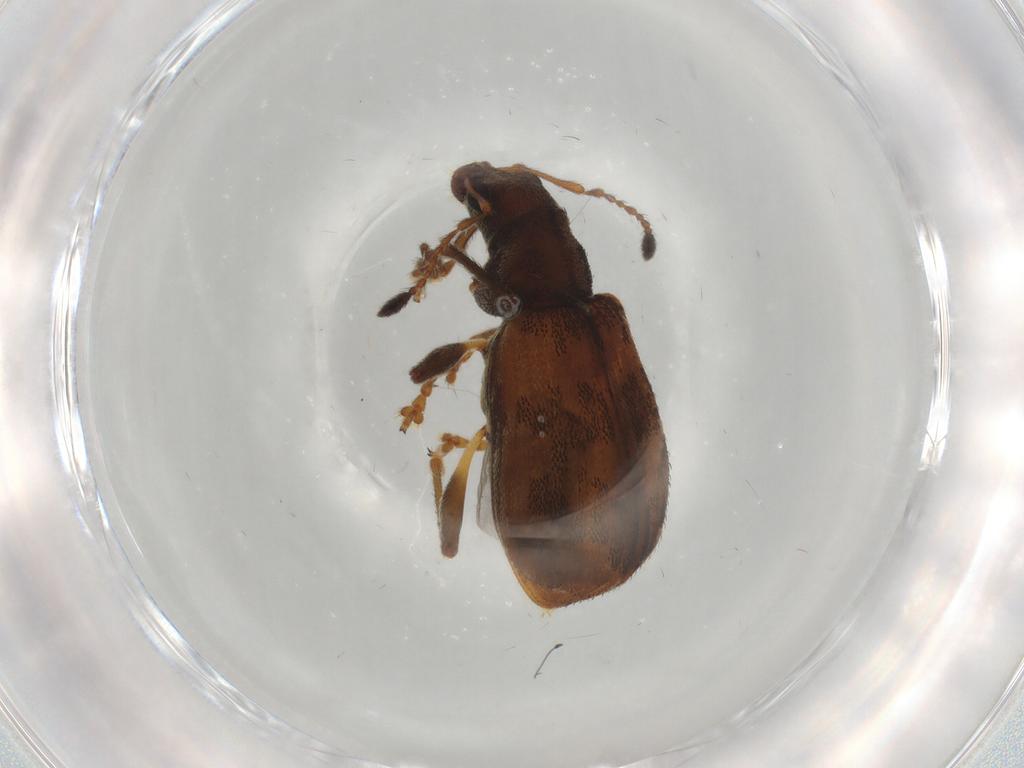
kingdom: Animalia
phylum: Arthropoda
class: Insecta
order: Coleoptera
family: Curculionidae
